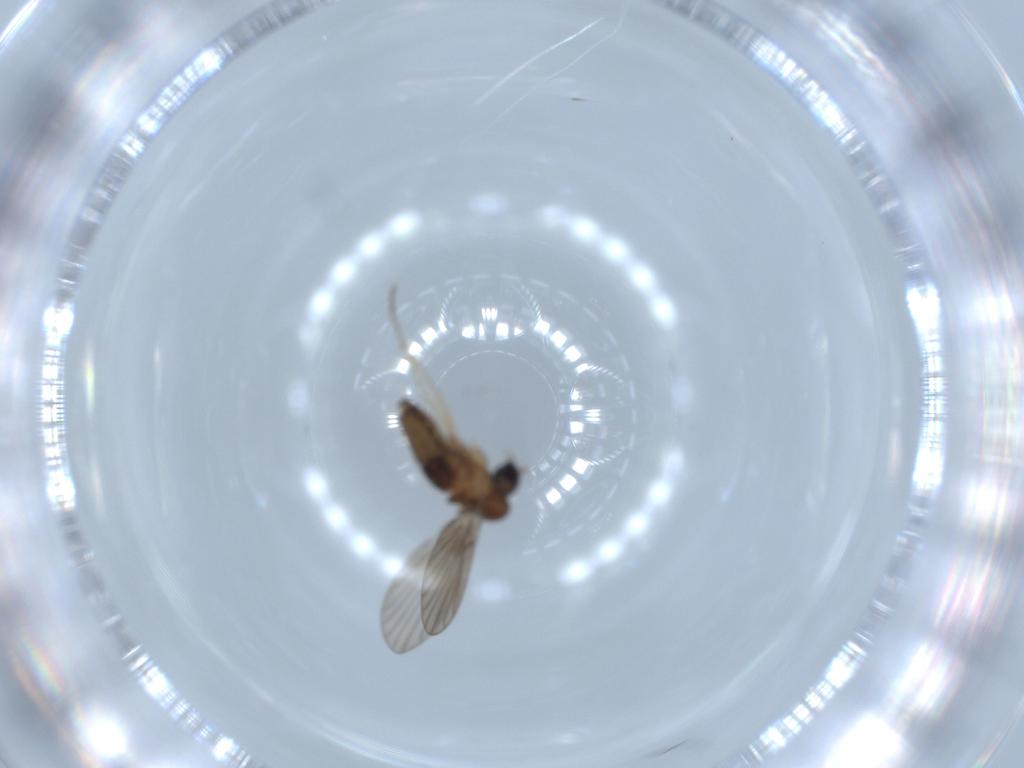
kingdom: Animalia
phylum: Arthropoda
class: Insecta
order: Diptera
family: Psychodidae
